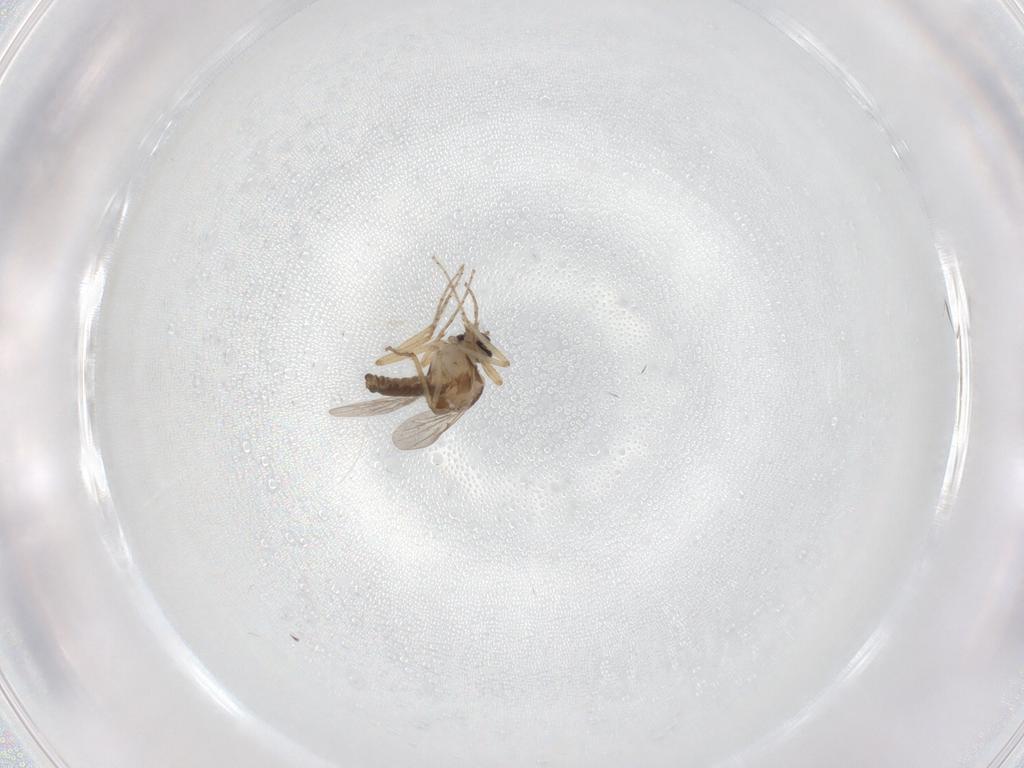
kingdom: Animalia
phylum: Arthropoda
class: Insecta
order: Diptera
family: Ceratopogonidae
